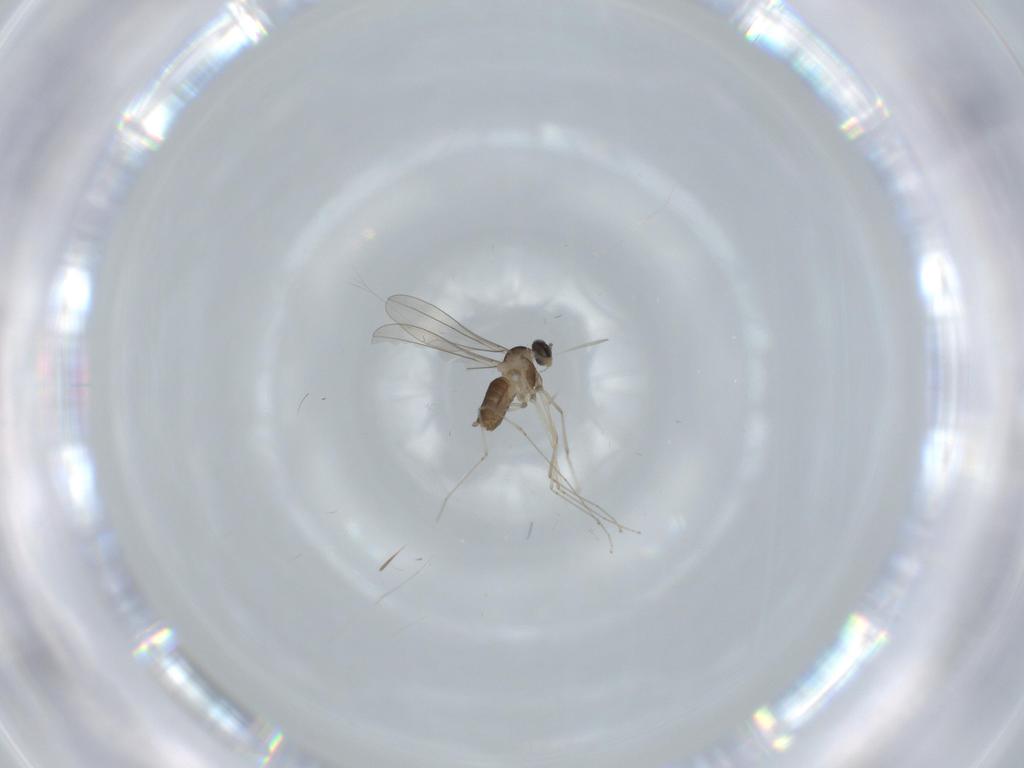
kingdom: Animalia
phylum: Arthropoda
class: Insecta
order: Diptera
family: Cecidomyiidae
